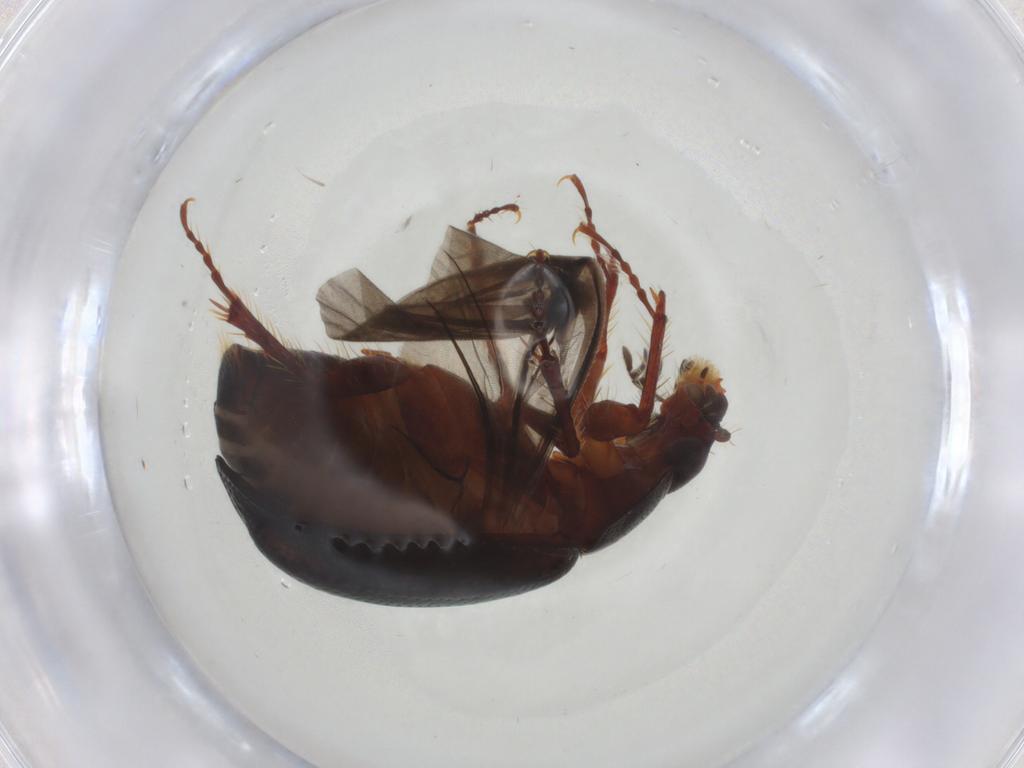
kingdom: Animalia
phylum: Arthropoda
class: Insecta
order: Coleoptera
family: Hybosoridae
